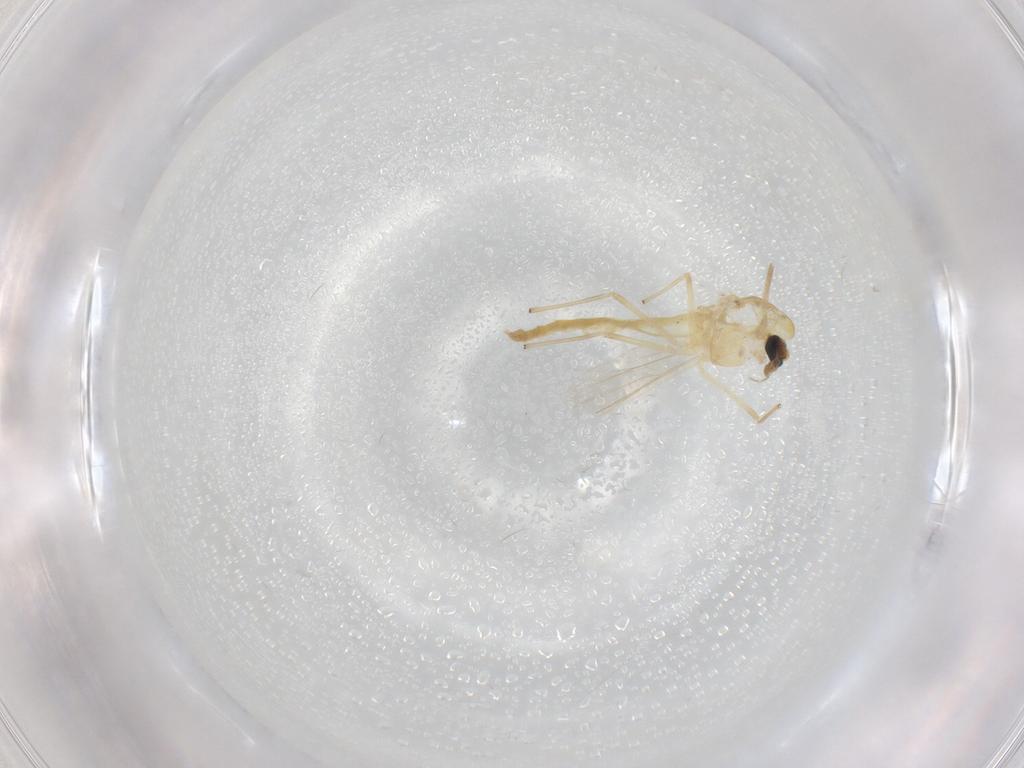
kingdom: Animalia
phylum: Arthropoda
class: Insecta
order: Diptera
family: Chironomidae
